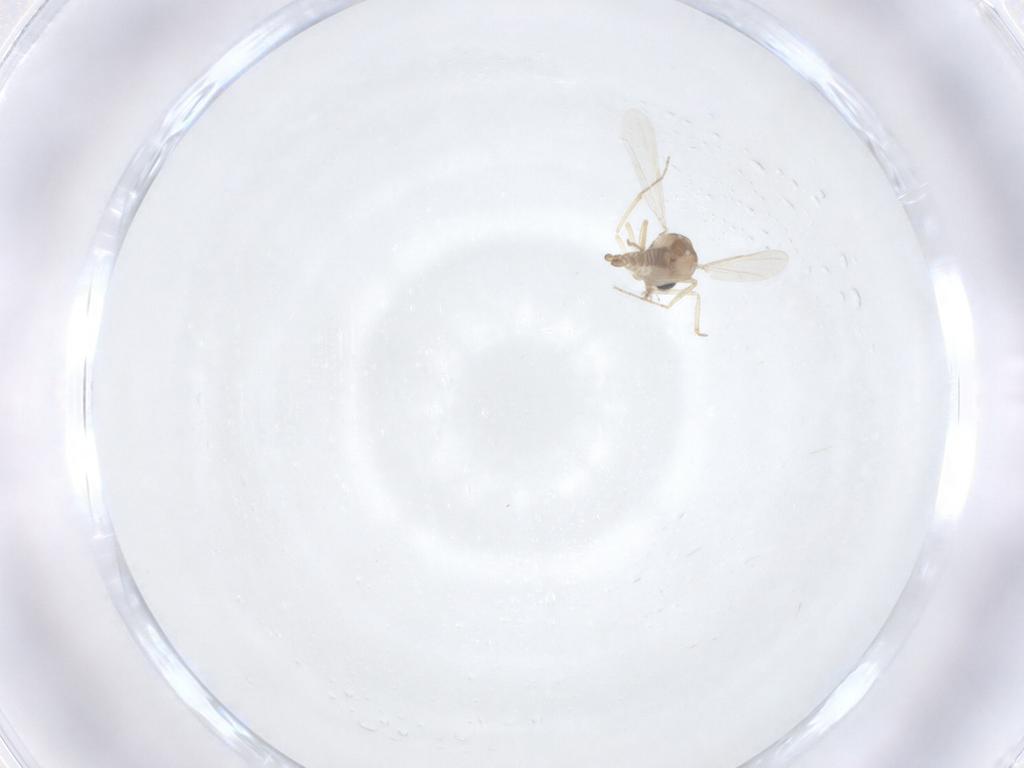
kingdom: Animalia
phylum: Arthropoda
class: Insecta
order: Diptera
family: Ceratopogonidae
